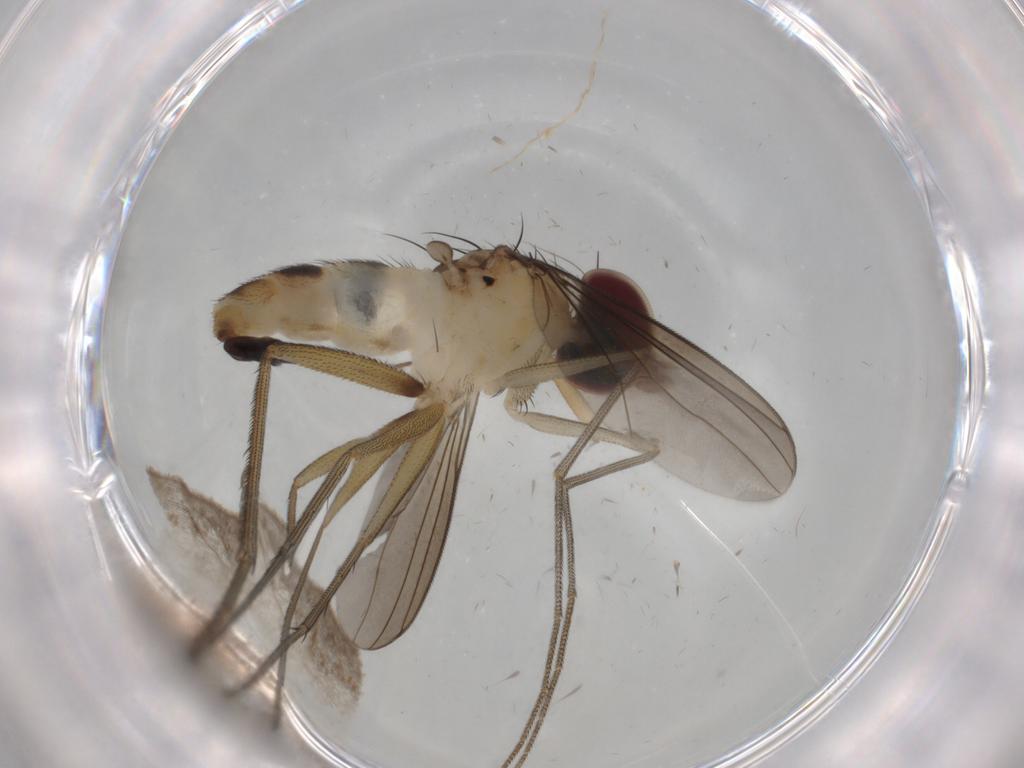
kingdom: Animalia
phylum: Arthropoda
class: Insecta
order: Diptera
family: Dolichopodidae
